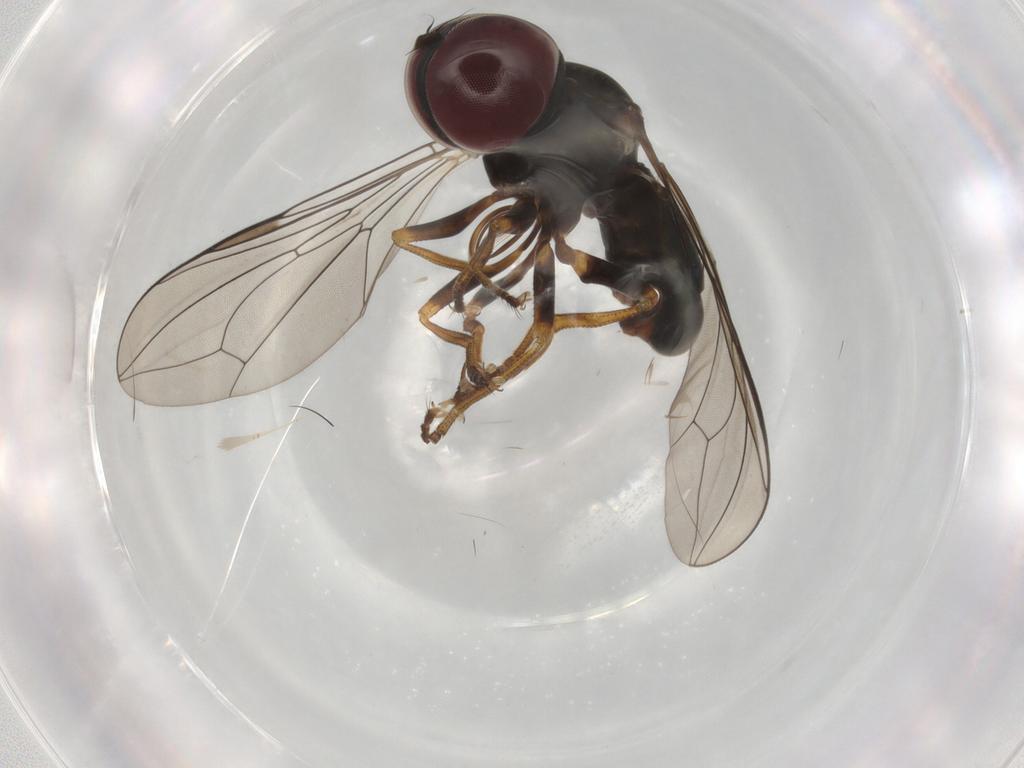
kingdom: Animalia
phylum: Arthropoda
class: Insecta
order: Diptera
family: Pipunculidae
